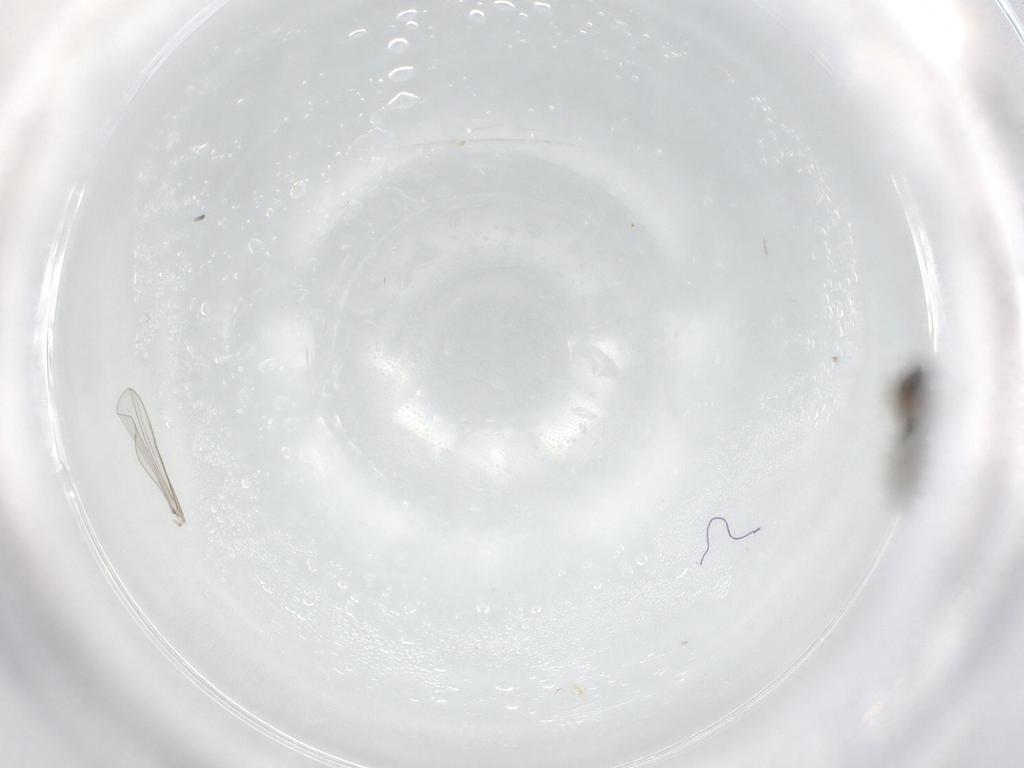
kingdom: Animalia
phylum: Arthropoda
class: Insecta
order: Diptera
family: Cecidomyiidae
